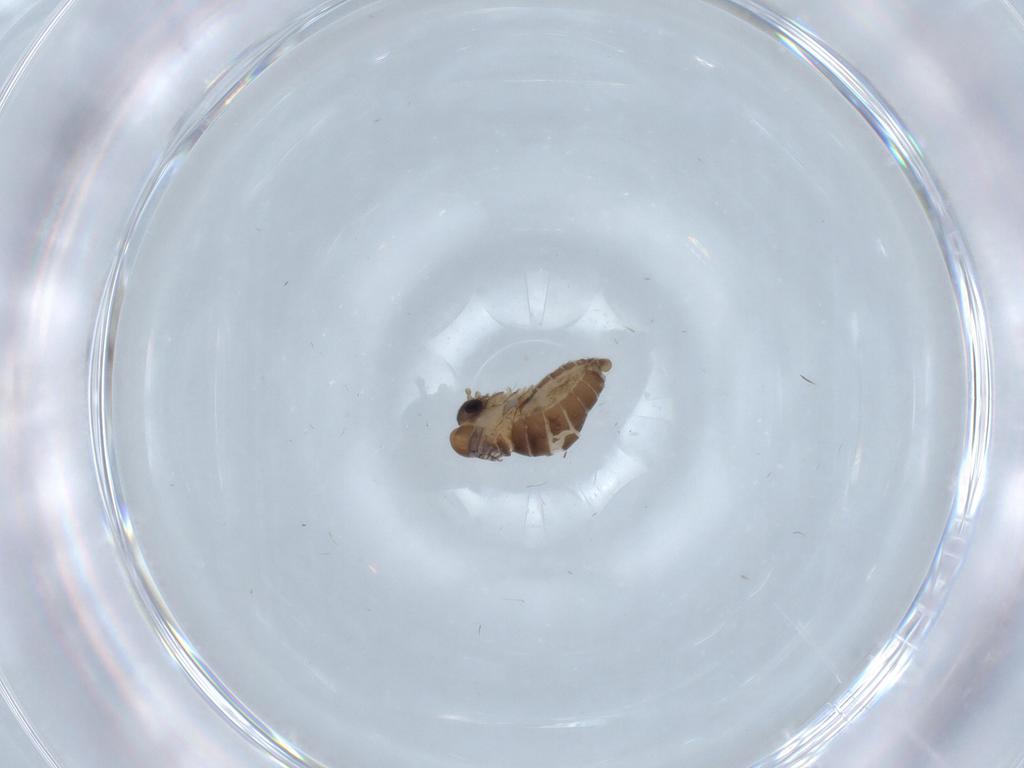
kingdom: Animalia
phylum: Arthropoda
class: Insecta
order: Diptera
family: Psychodidae
